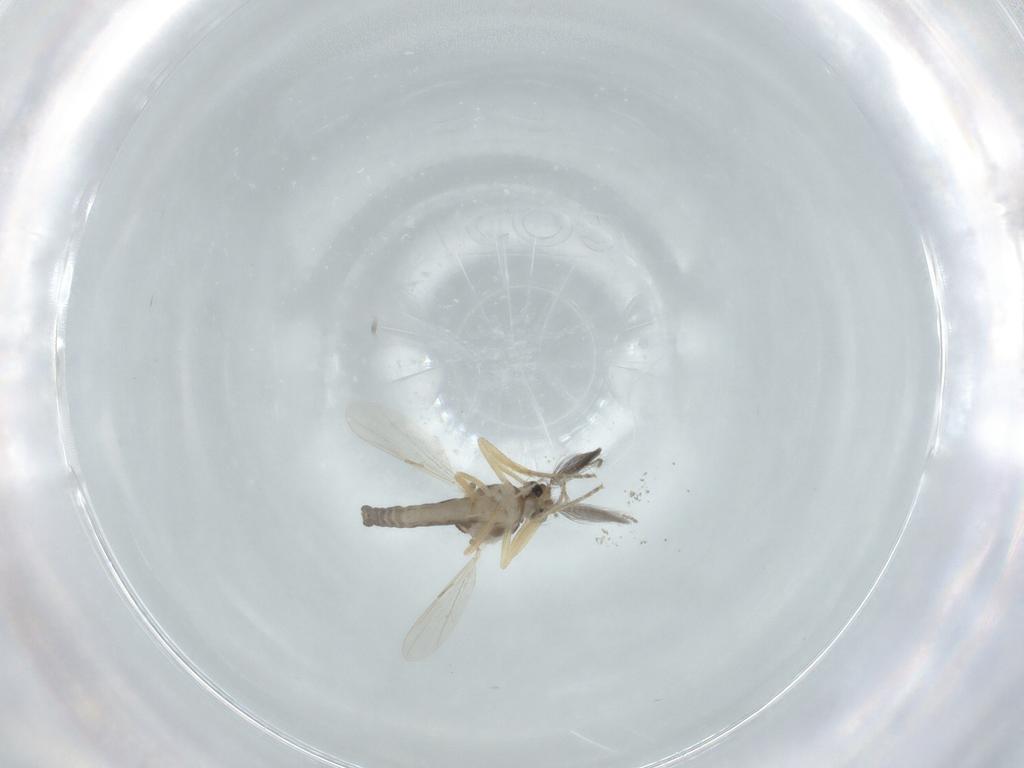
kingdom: Animalia
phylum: Arthropoda
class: Insecta
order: Diptera
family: Ceratopogonidae
